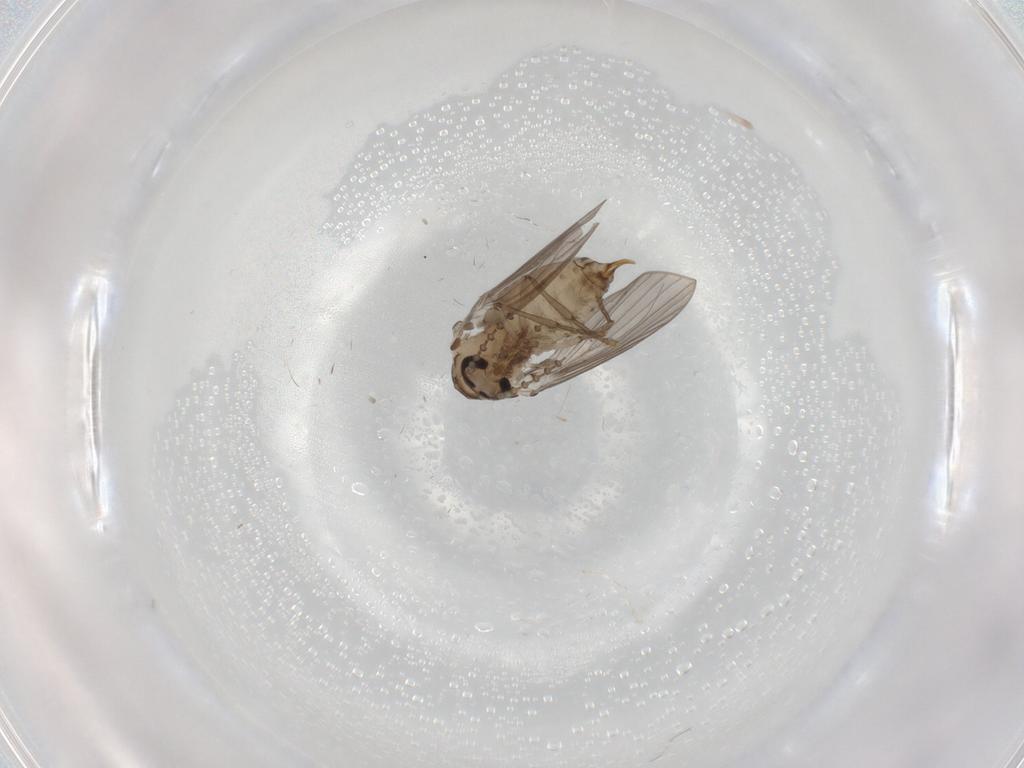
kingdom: Animalia
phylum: Arthropoda
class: Insecta
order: Diptera
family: Psychodidae
